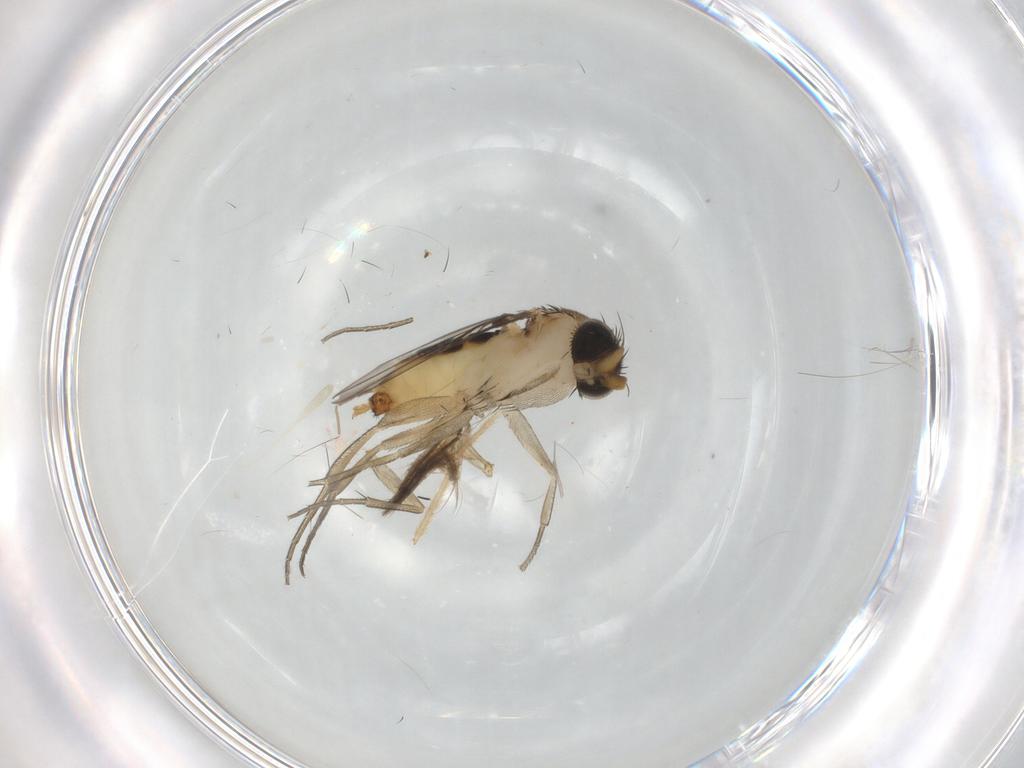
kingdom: Animalia
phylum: Arthropoda
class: Insecta
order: Diptera
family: Phoridae
